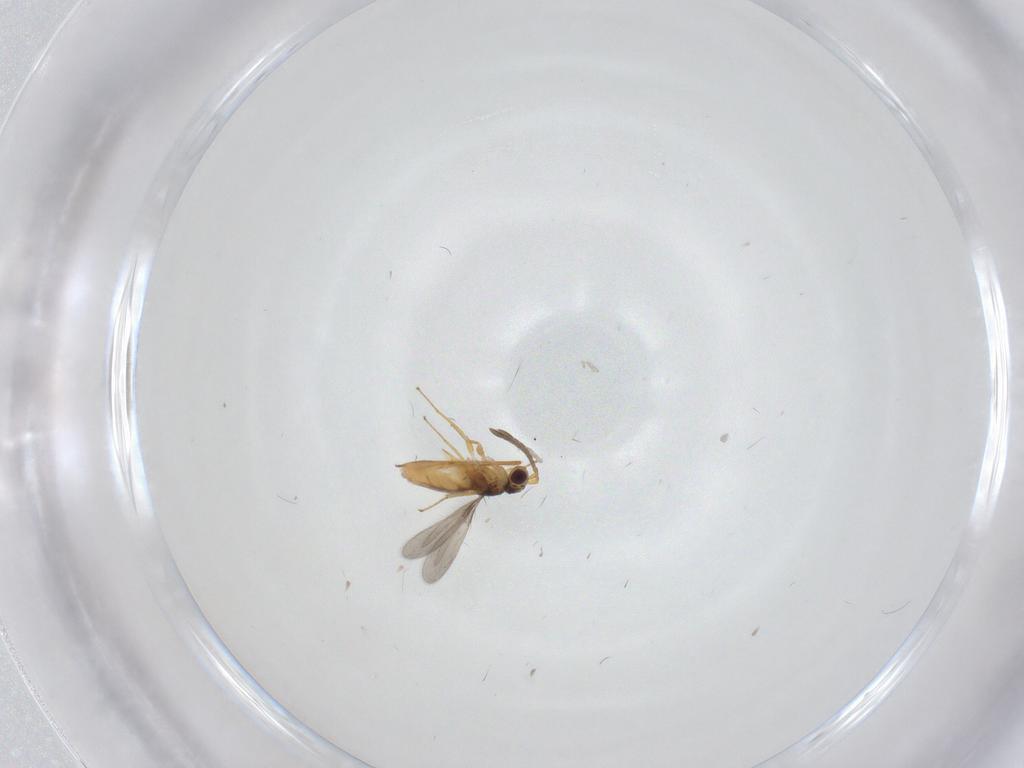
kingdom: Animalia
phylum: Arthropoda
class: Insecta
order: Hymenoptera
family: Mymaridae
